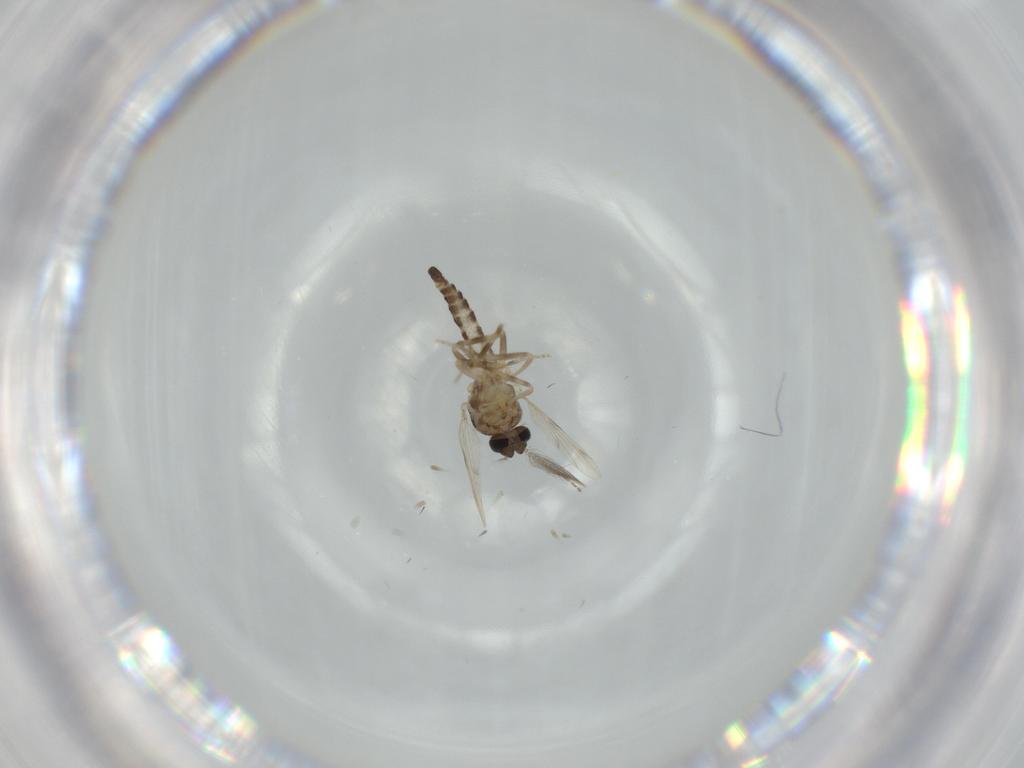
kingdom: Animalia
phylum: Arthropoda
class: Insecta
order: Diptera
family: Ceratopogonidae
